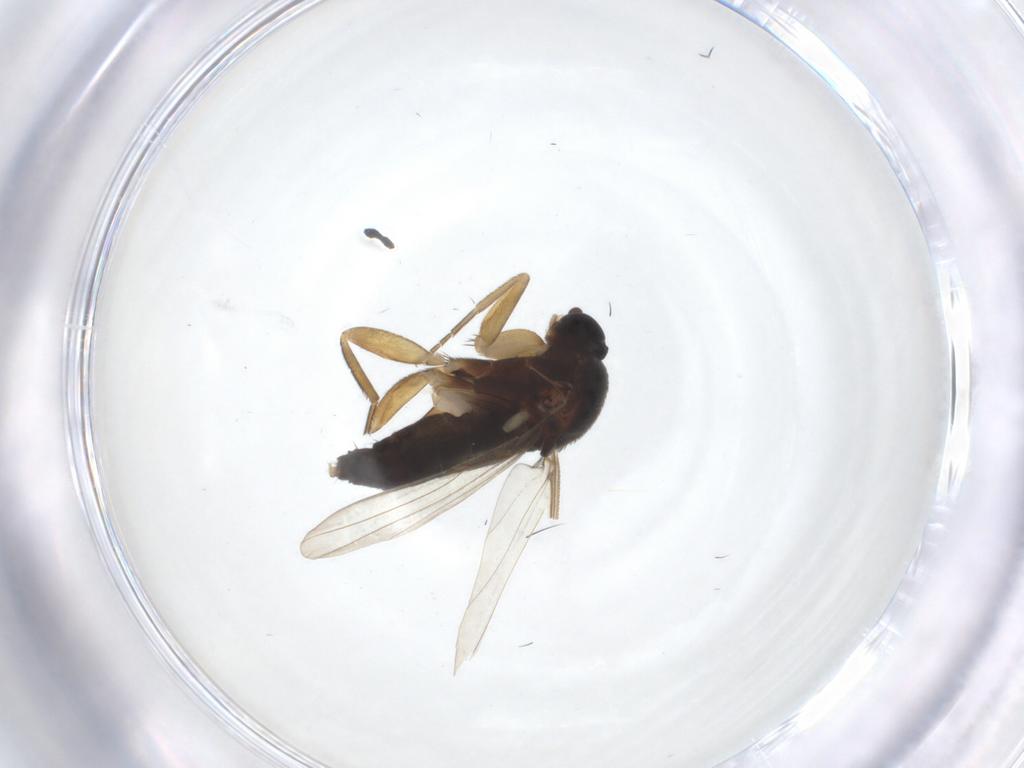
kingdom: Animalia
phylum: Arthropoda
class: Insecta
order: Diptera
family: Phoridae
